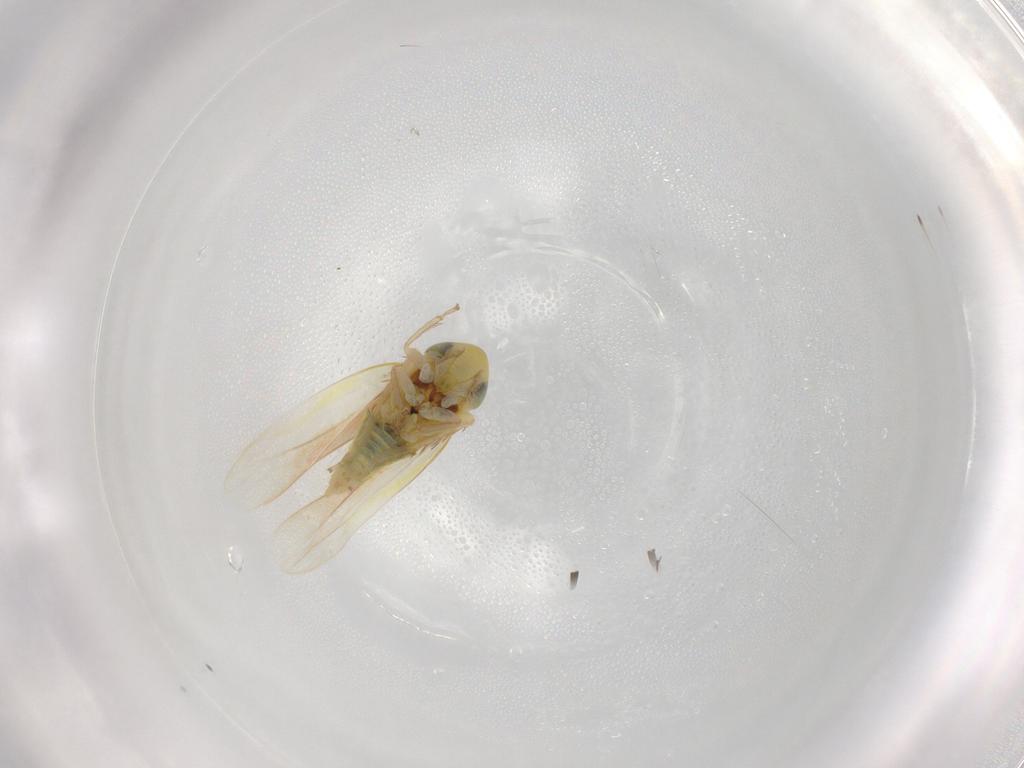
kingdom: Animalia
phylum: Arthropoda
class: Insecta
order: Hemiptera
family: Cicadellidae
